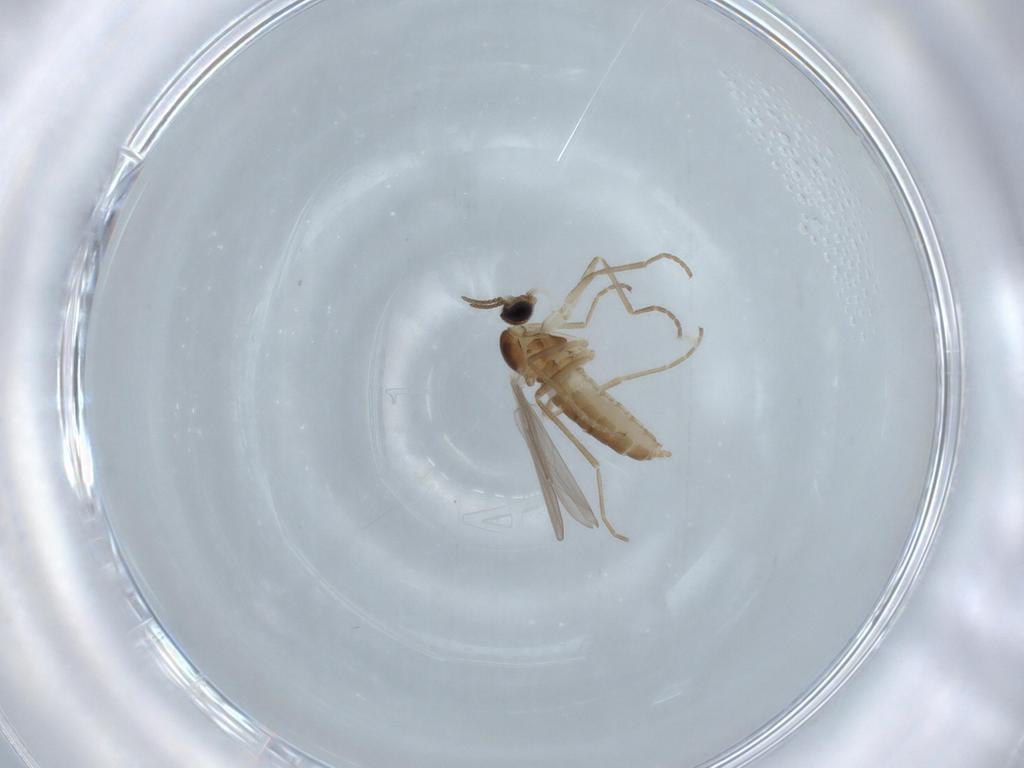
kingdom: Animalia
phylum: Arthropoda
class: Insecta
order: Diptera
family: Cecidomyiidae
